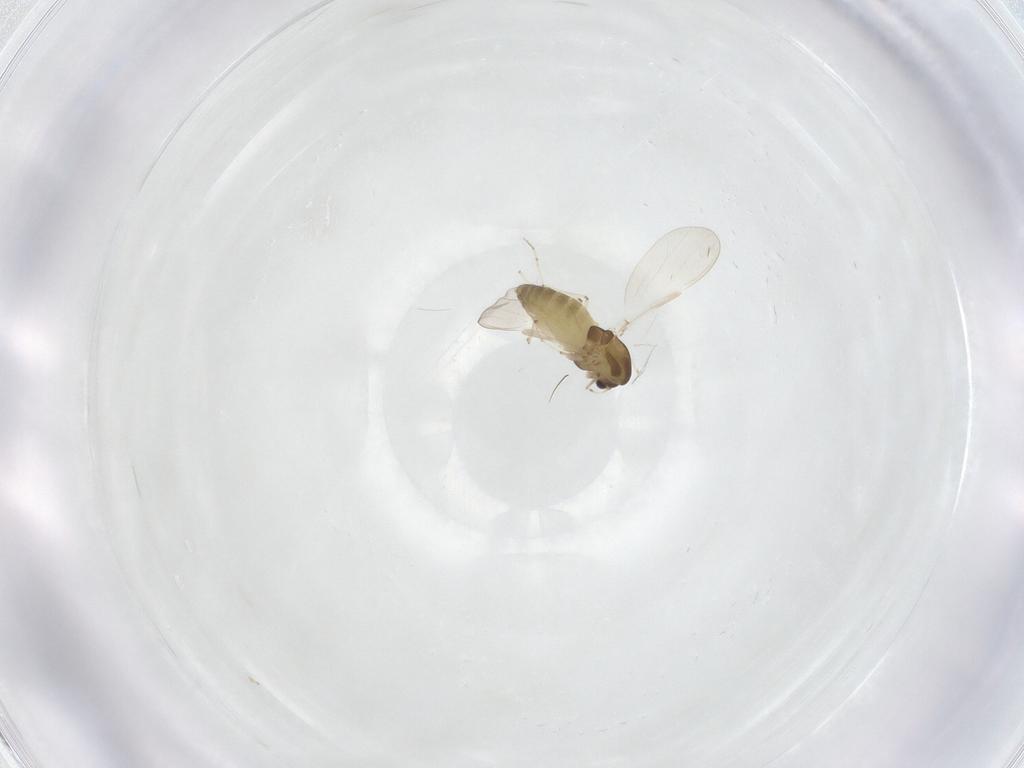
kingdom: Animalia
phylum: Arthropoda
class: Insecta
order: Diptera
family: Chironomidae
